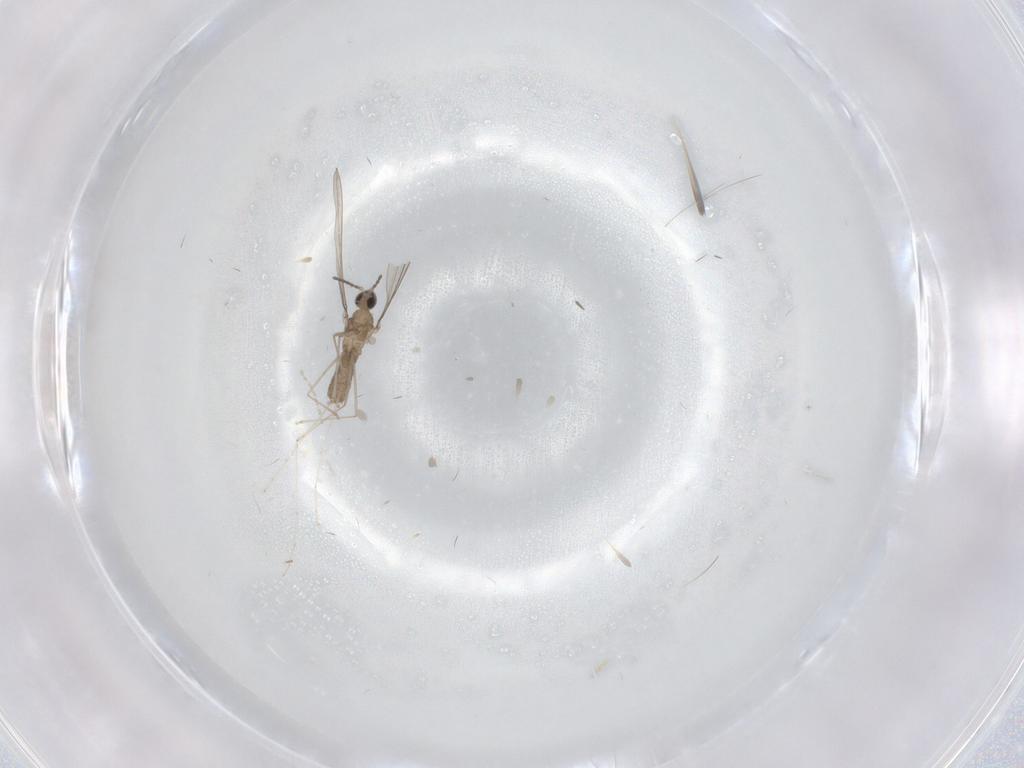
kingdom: Animalia
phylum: Arthropoda
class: Insecta
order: Diptera
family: Cecidomyiidae
